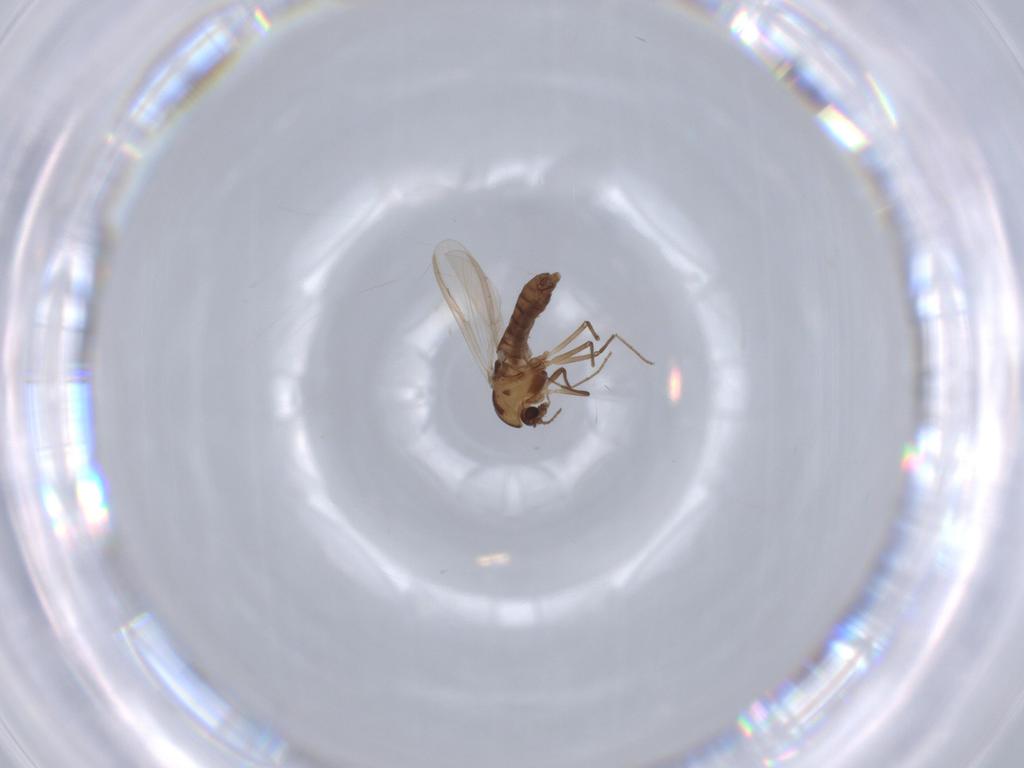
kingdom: Animalia
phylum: Arthropoda
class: Insecta
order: Diptera
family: Chironomidae
